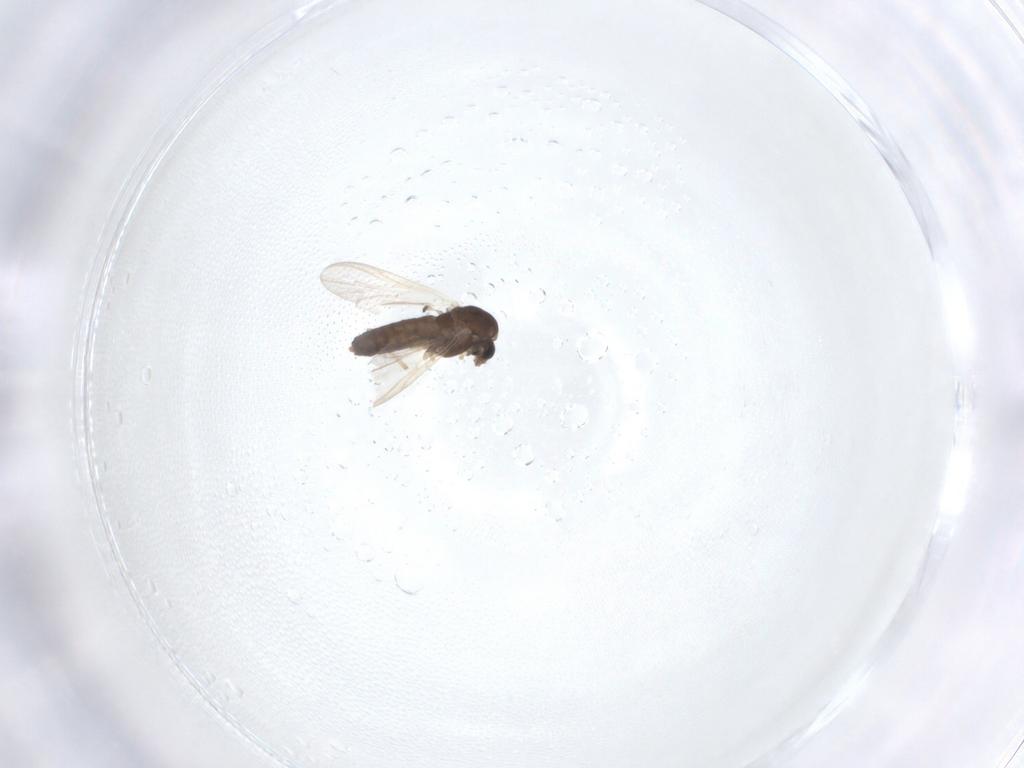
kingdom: Animalia
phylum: Arthropoda
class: Insecta
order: Diptera
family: Chironomidae
